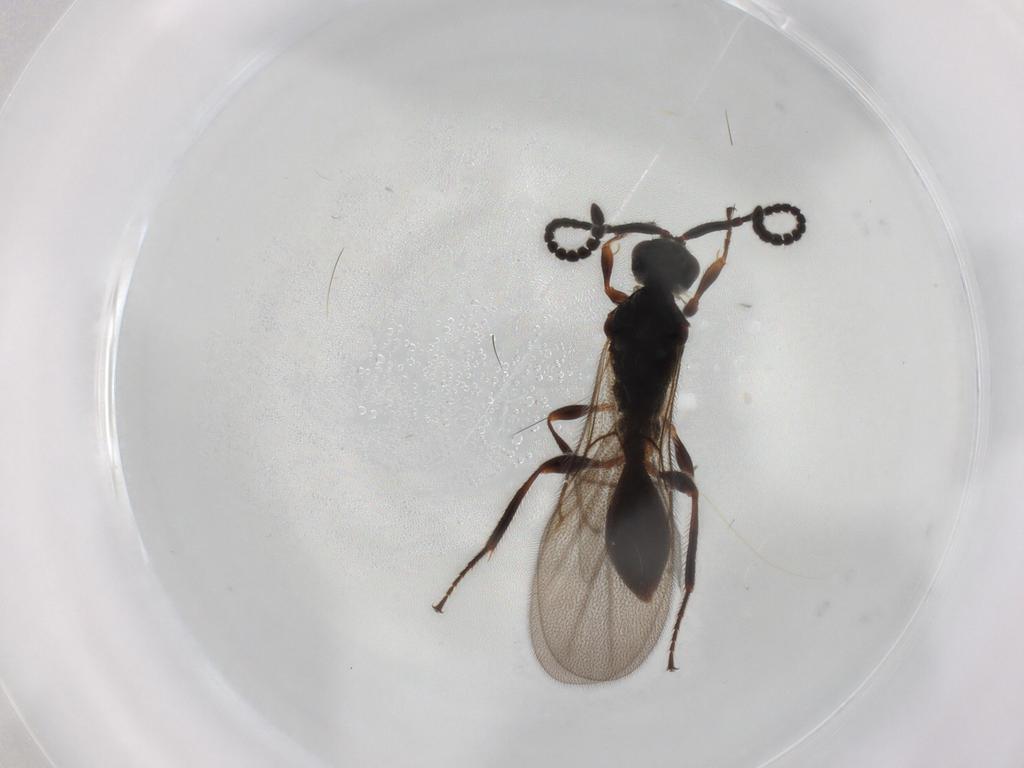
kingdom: Animalia
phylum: Arthropoda
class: Insecta
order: Hymenoptera
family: Diapriidae
